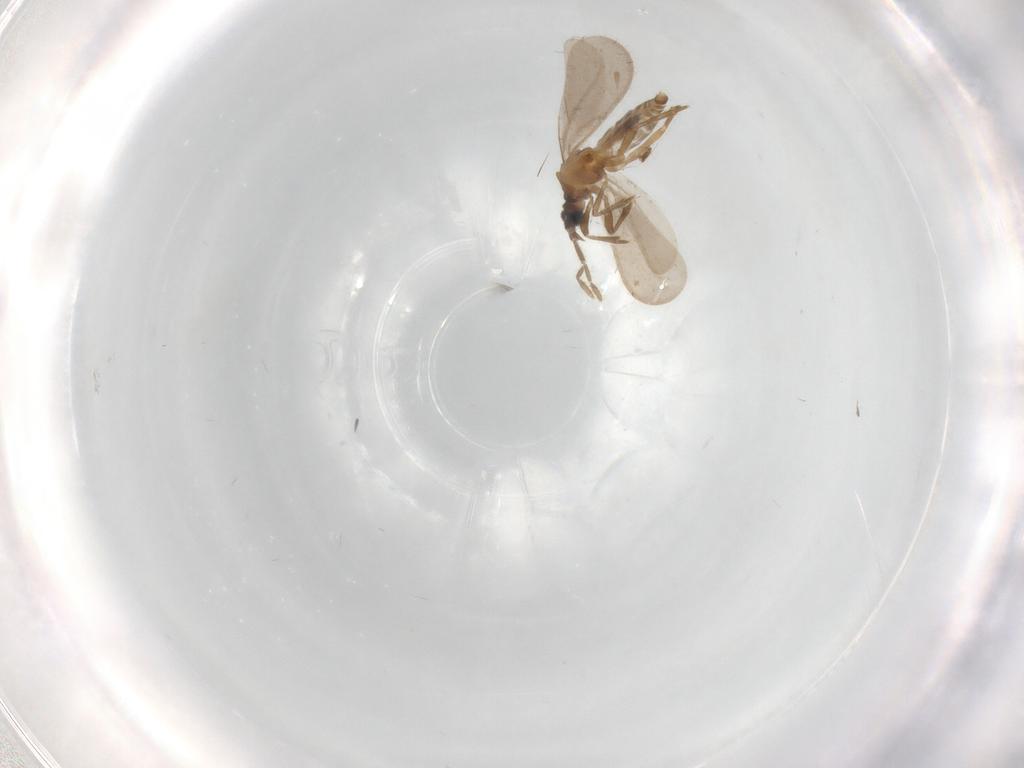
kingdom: Animalia
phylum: Arthropoda
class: Insecta
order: Hemiptera
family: Enicocephalidae
